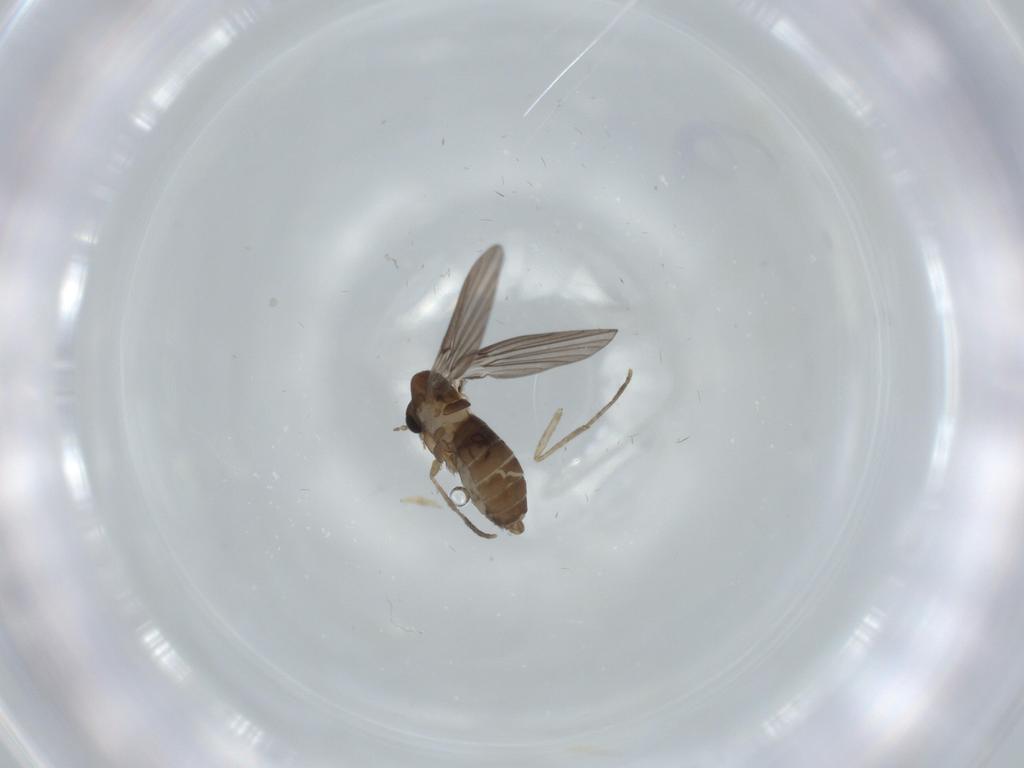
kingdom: Animalia
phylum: Arthropoda
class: Insecta
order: Diptera
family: Psychodidae
